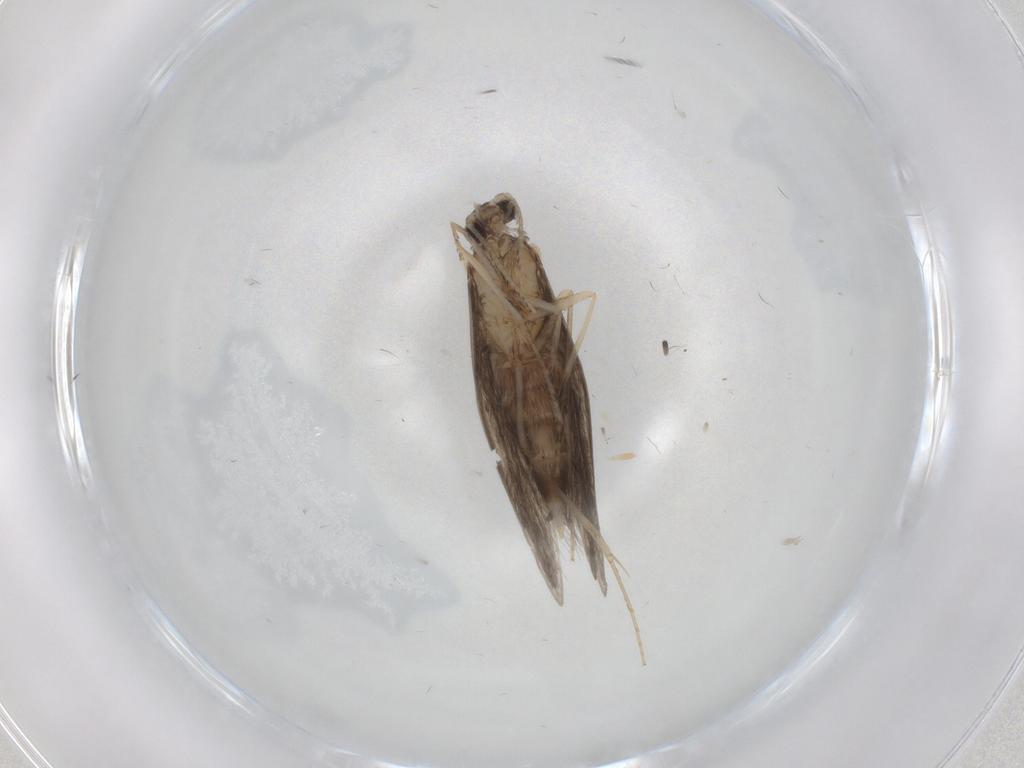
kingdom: Animalia
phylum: Arthropoda
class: Insecta
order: Trichoptera
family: Hydroptilidae
